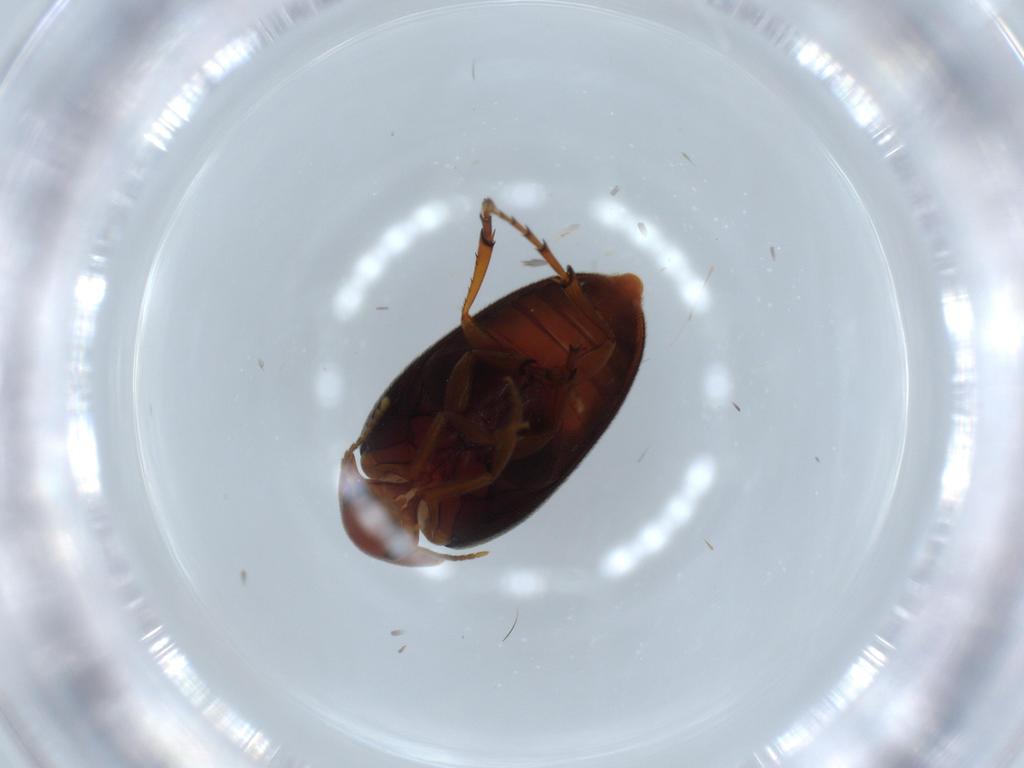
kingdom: Animalia
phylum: Arthropoda
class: Insecta
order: Coleoptera
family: Eucinetidae
